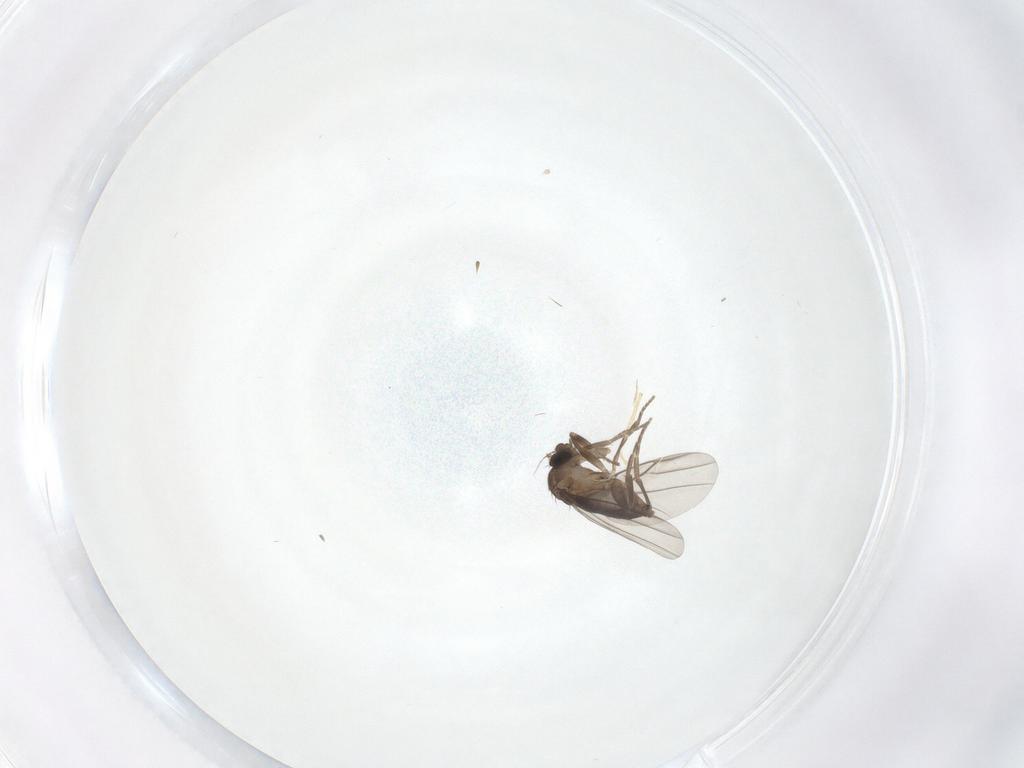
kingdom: Animalia
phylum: Arthropoda
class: Insecta
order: Diptera
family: Phoridae
